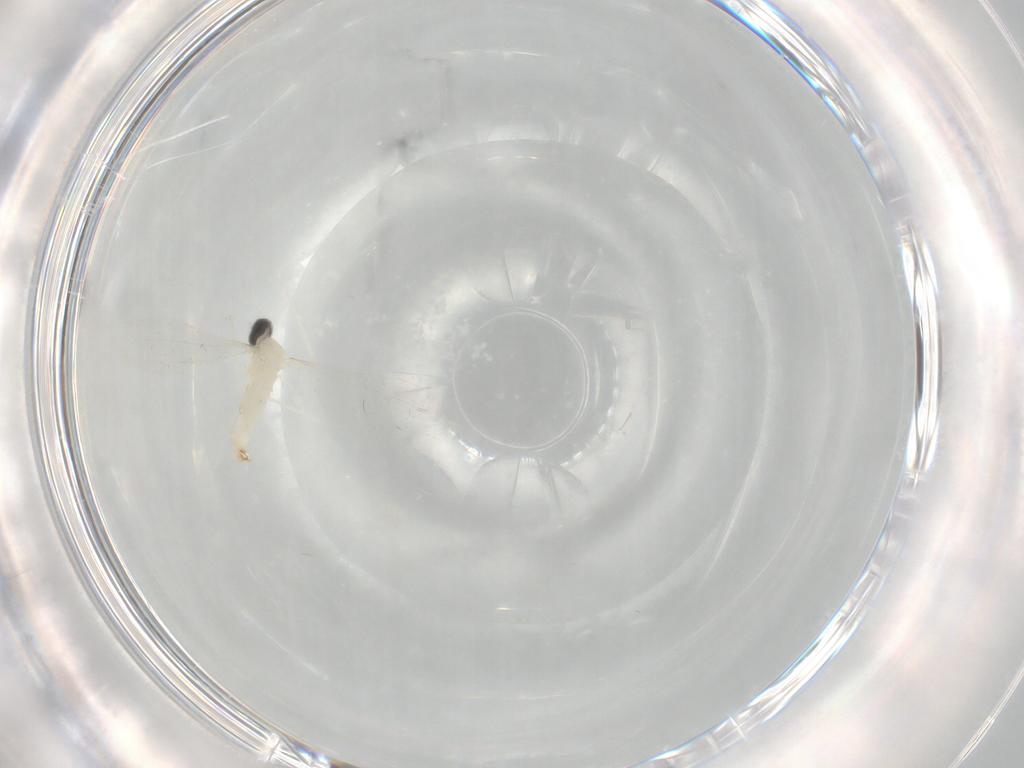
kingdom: Animalia
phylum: Arthropoda
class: Insecta
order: Diptera
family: Cecidomyiidae
